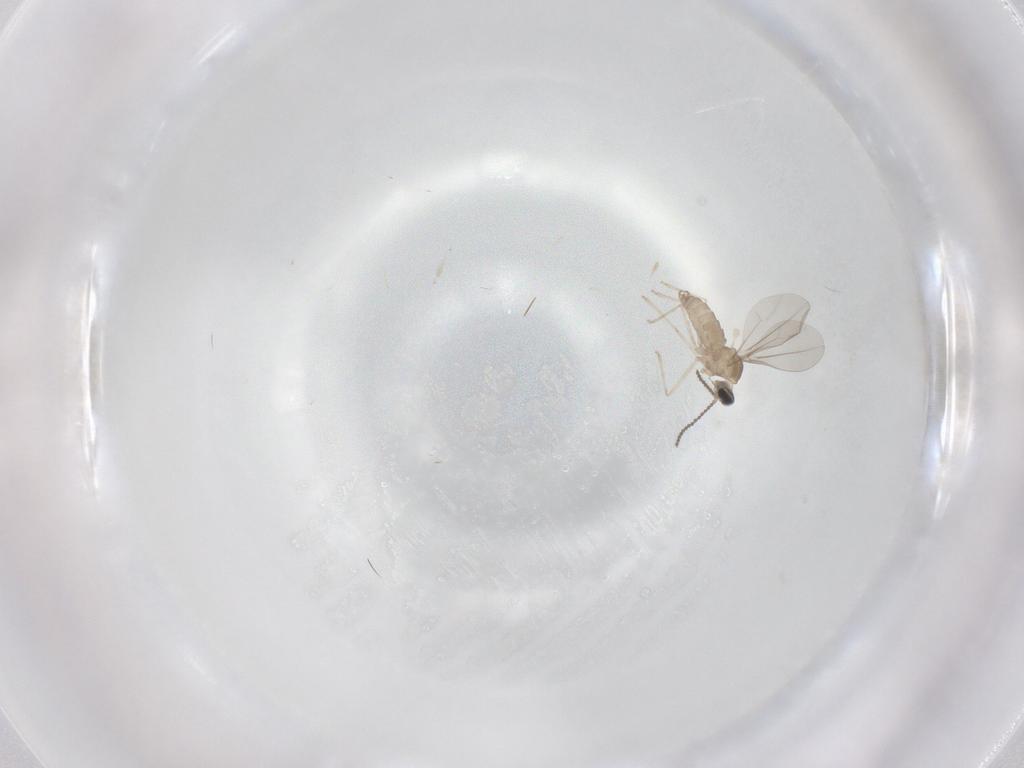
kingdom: Animalia
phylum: Arthropoda
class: Insecta
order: Diptera
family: Cecidomyiidae
